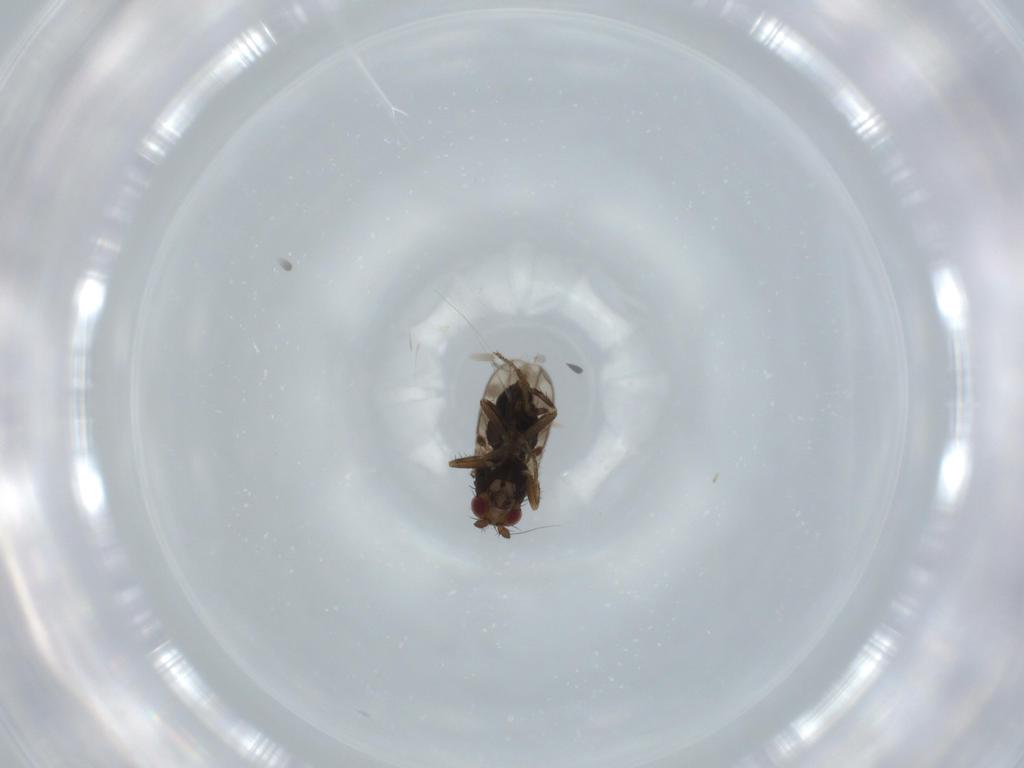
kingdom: Animalia
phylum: Arthropoda
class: Insecta
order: Diptera
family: Sphaeroceridae
